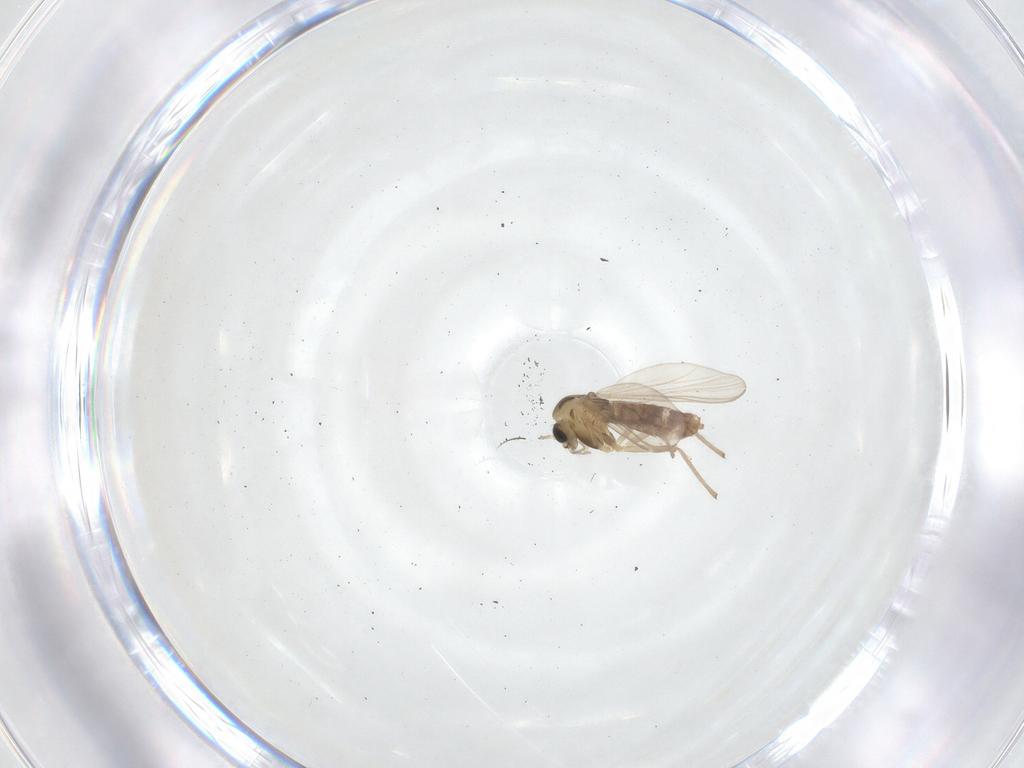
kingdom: Animalia
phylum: Arthropoda
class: Insecta
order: Diptera
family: Chironomidae
